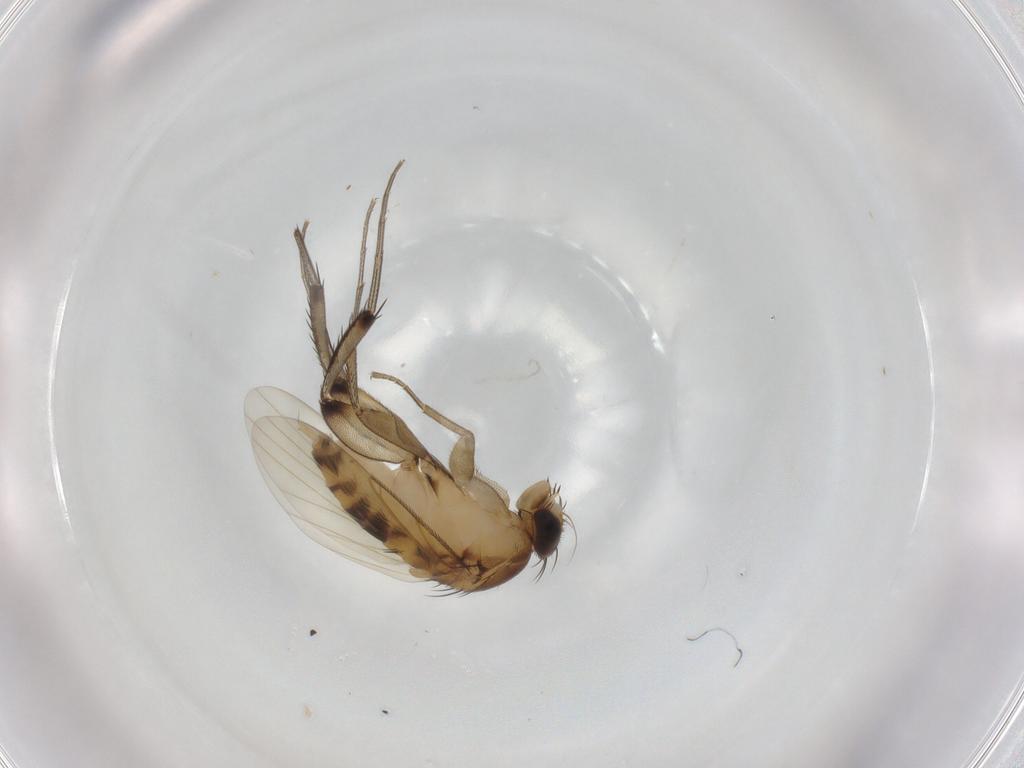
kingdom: Animalia
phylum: Arthropoda
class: Insecta
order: Diptera
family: Phoridae
